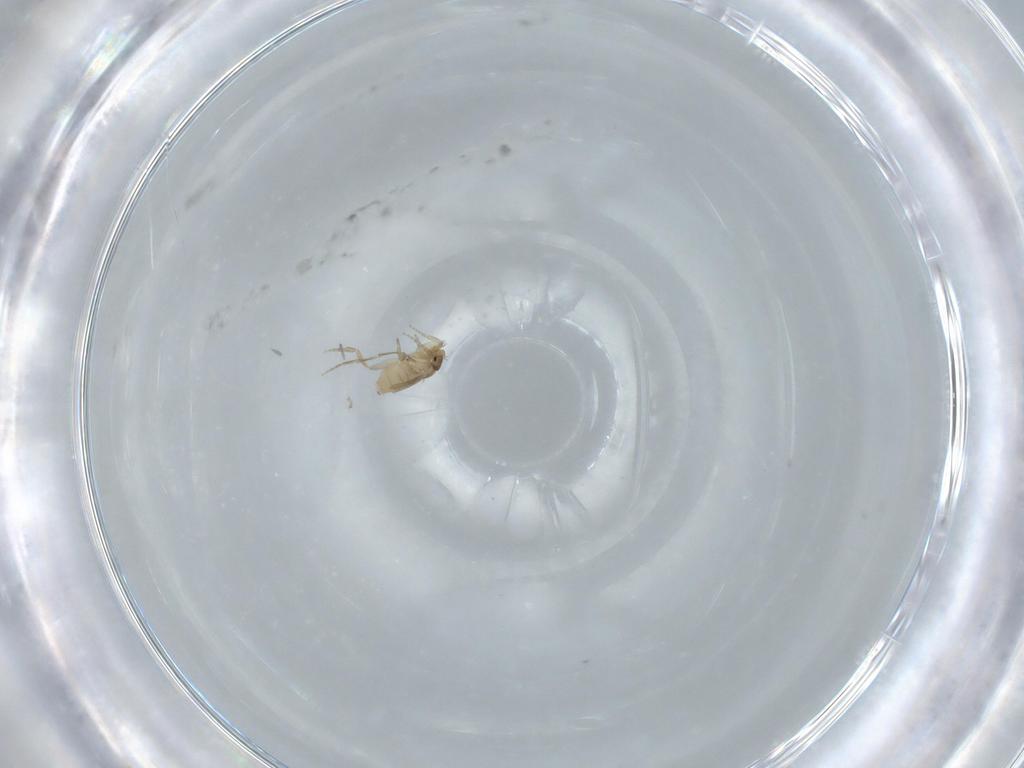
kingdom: Animalia
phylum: Arthropoda
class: Insecta
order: Diptera
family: Phoridae
